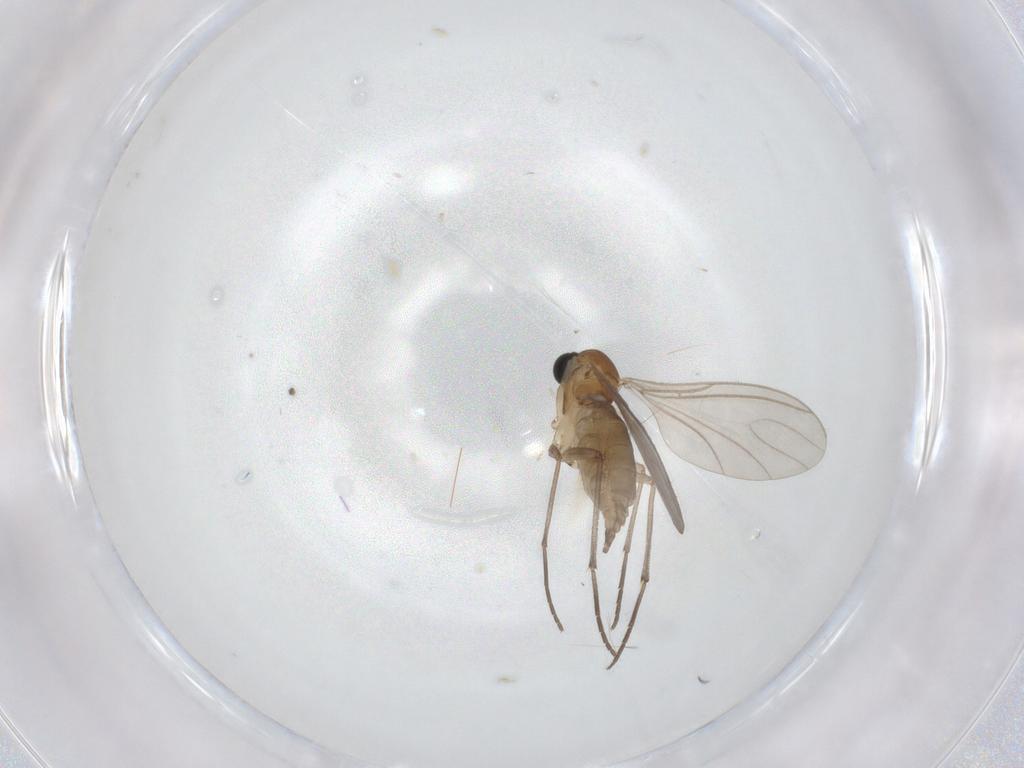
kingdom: Animalia
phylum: Arthropoda
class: Insecta
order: Diptera
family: Sciaridae
